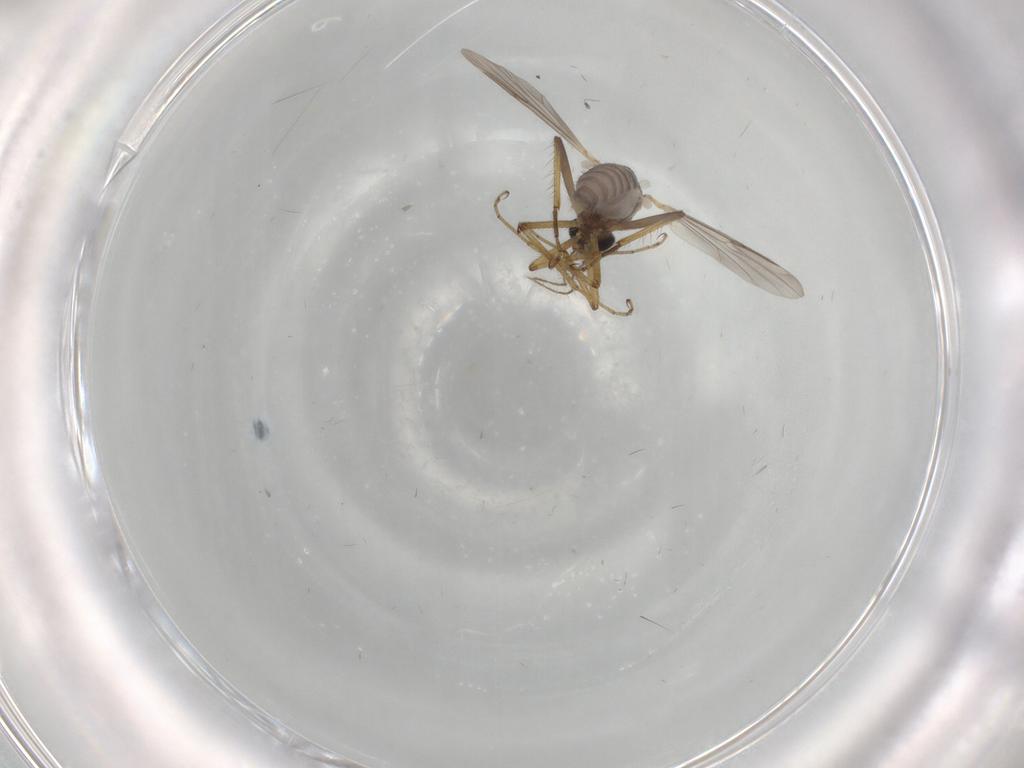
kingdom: Animalia
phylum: Arthropoda
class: Insecta
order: Diptera
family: Ceratopogonidae
